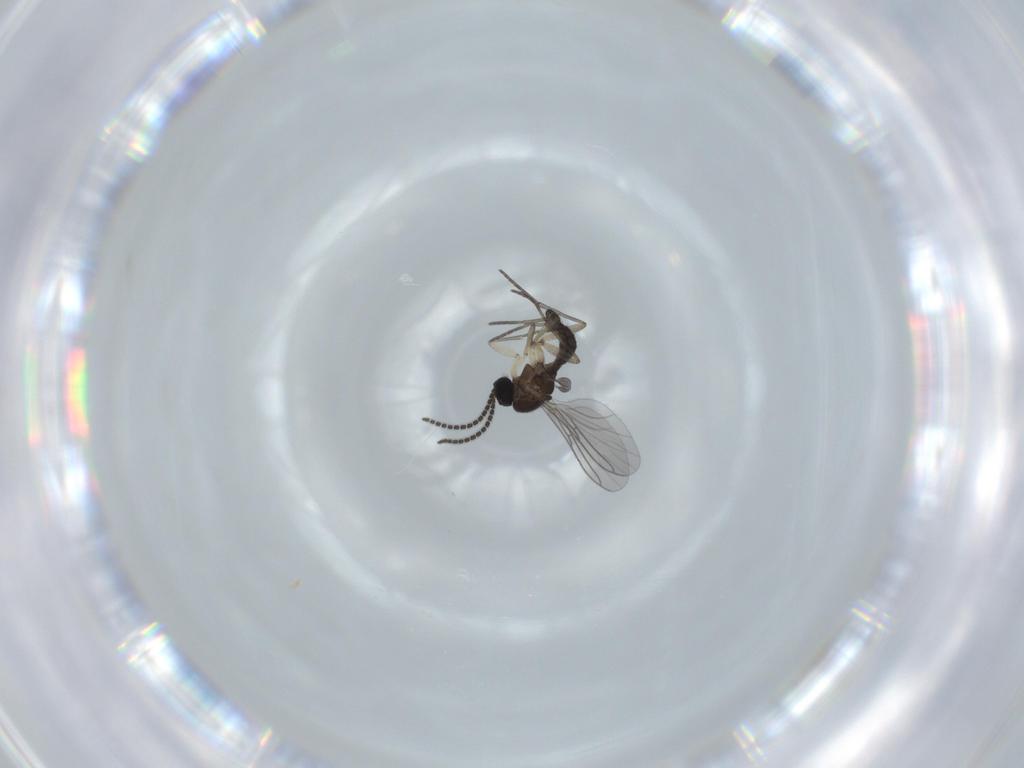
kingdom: Animalia
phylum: Arthropoda
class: Insecta
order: Diptera
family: Sciaridae
